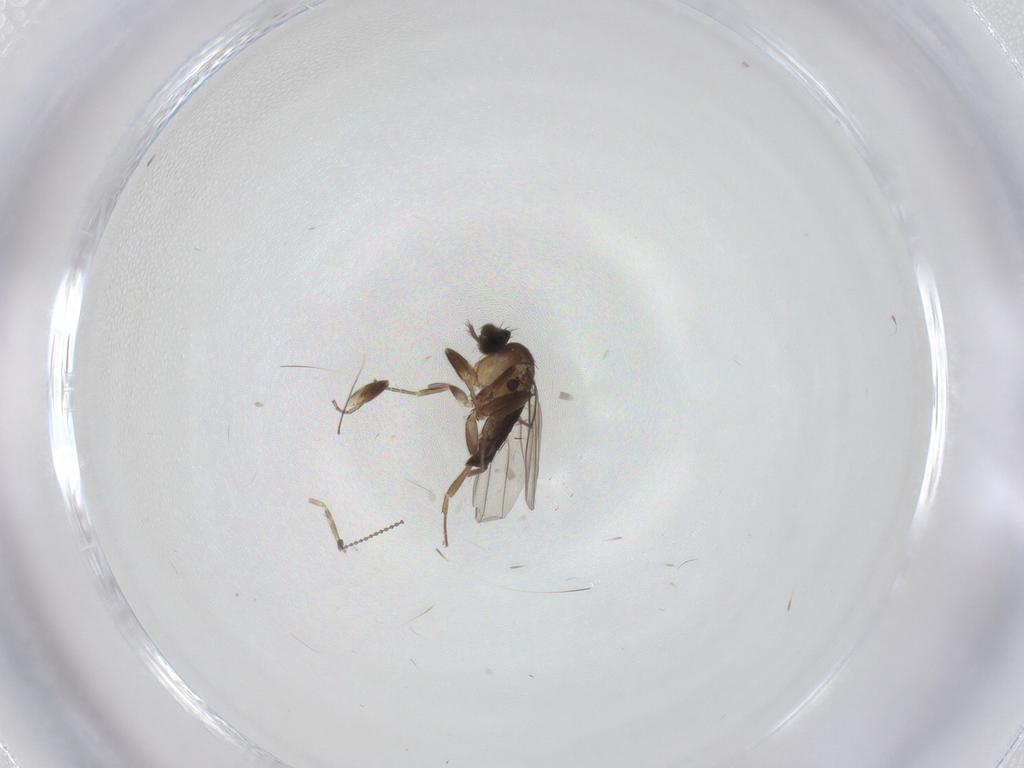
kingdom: Animalia
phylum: Arthropoda
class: Insecta
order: Diptera
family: Phoridae
